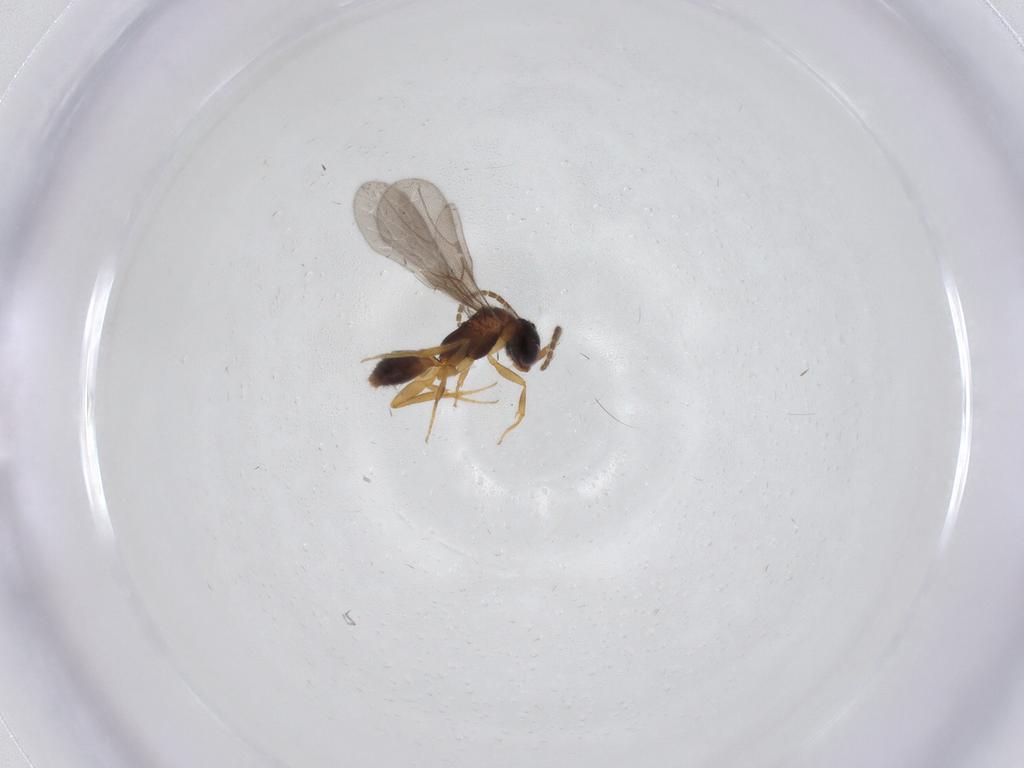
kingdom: Animalia
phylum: Arthropoda
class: Insecta
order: Hymenoptera
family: Bethylidae
